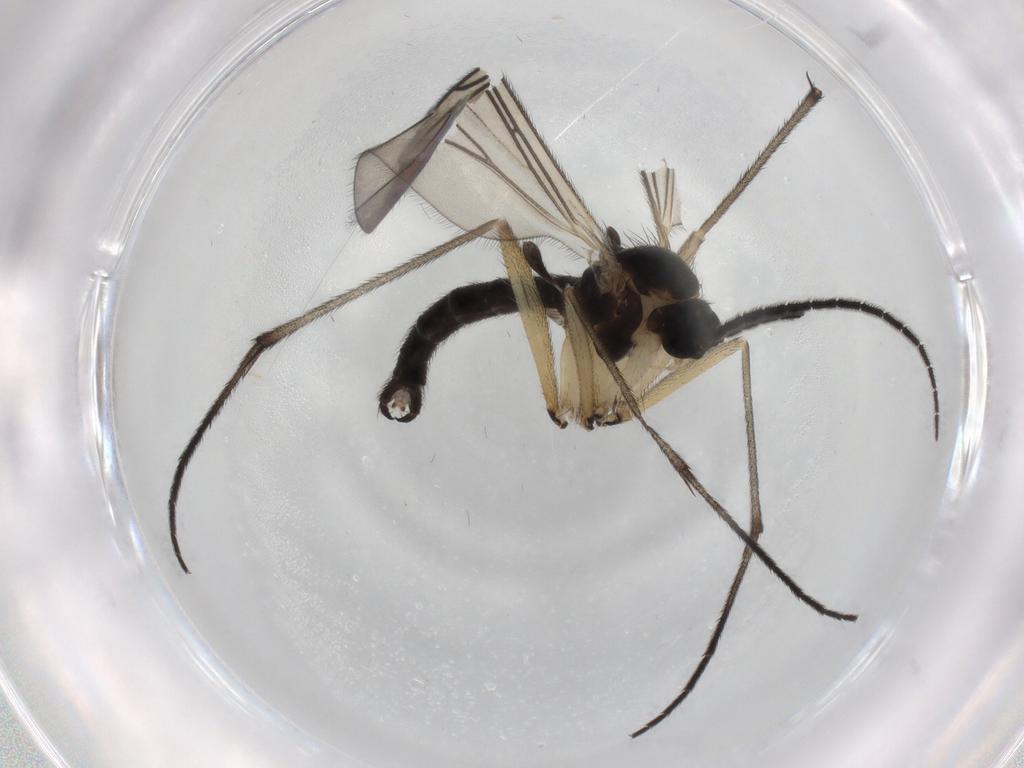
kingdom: Animalia
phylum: Arthropoda
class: Insecta
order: Diptera
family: Sciaridae
